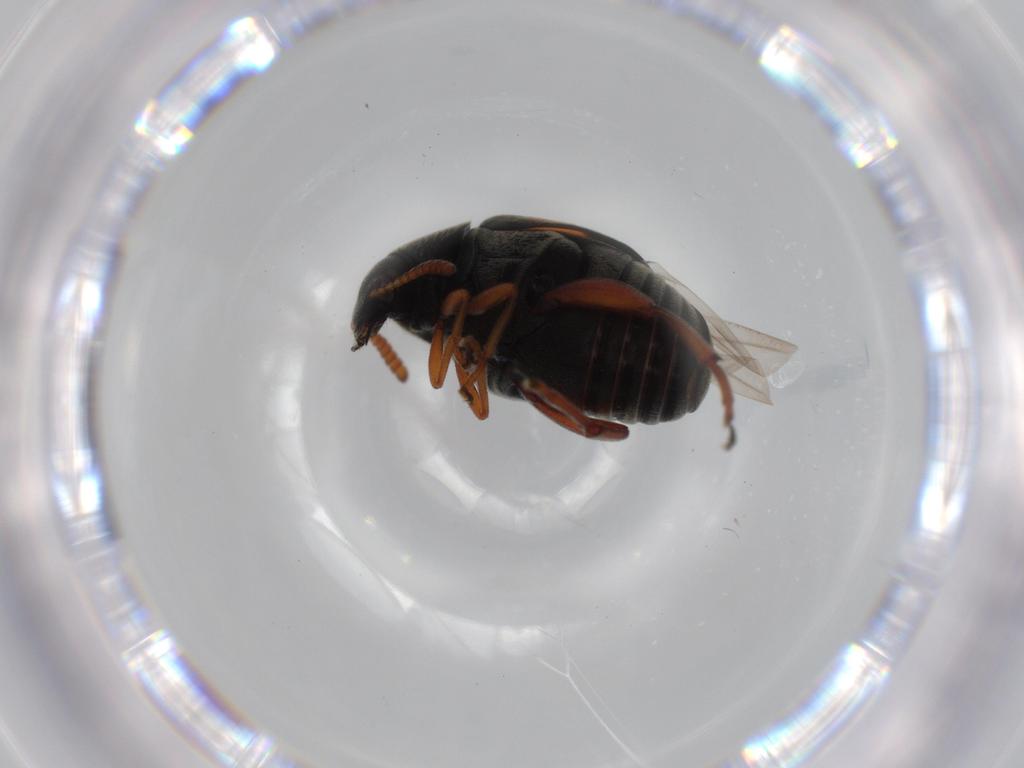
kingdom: Animalia
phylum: Arthropoda
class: Insecta
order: Coleoptera
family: Chrysomelidae
